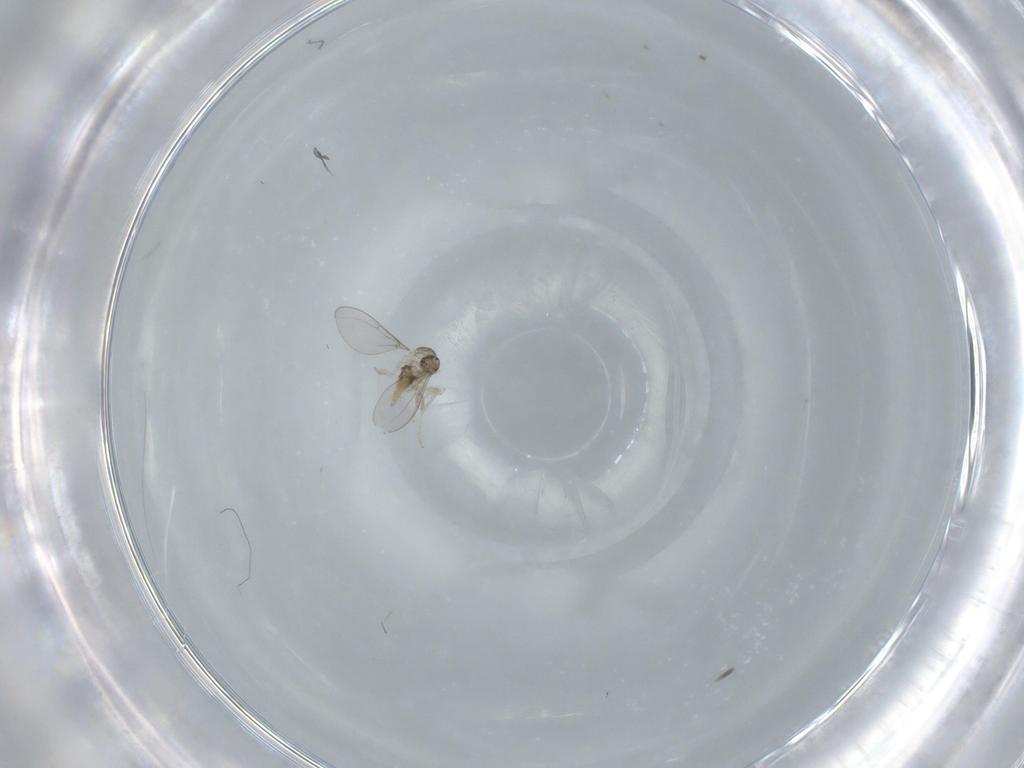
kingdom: Animalia
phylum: Arthropoda
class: Insecta
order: Diptera
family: Cecidomyiidae
